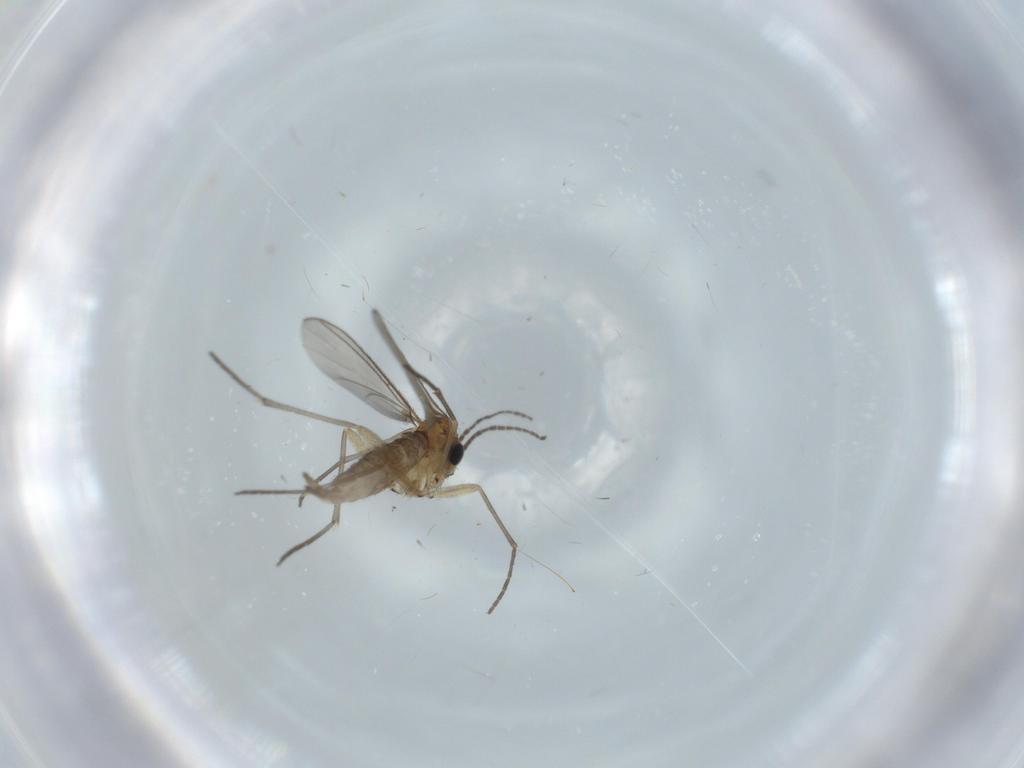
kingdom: Animalia
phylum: Arthropoda
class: Insecta
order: Diptera
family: Sciaridae
